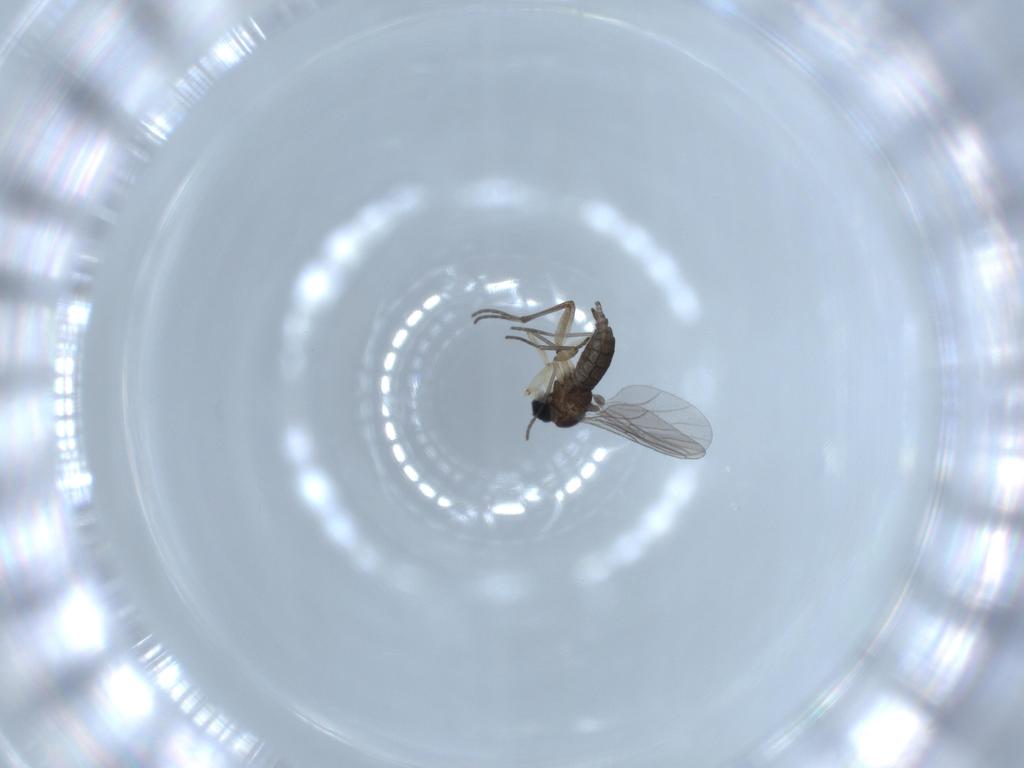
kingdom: Animalia
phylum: Arthropoda
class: Insecta
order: Diptera
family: Sciaridae
